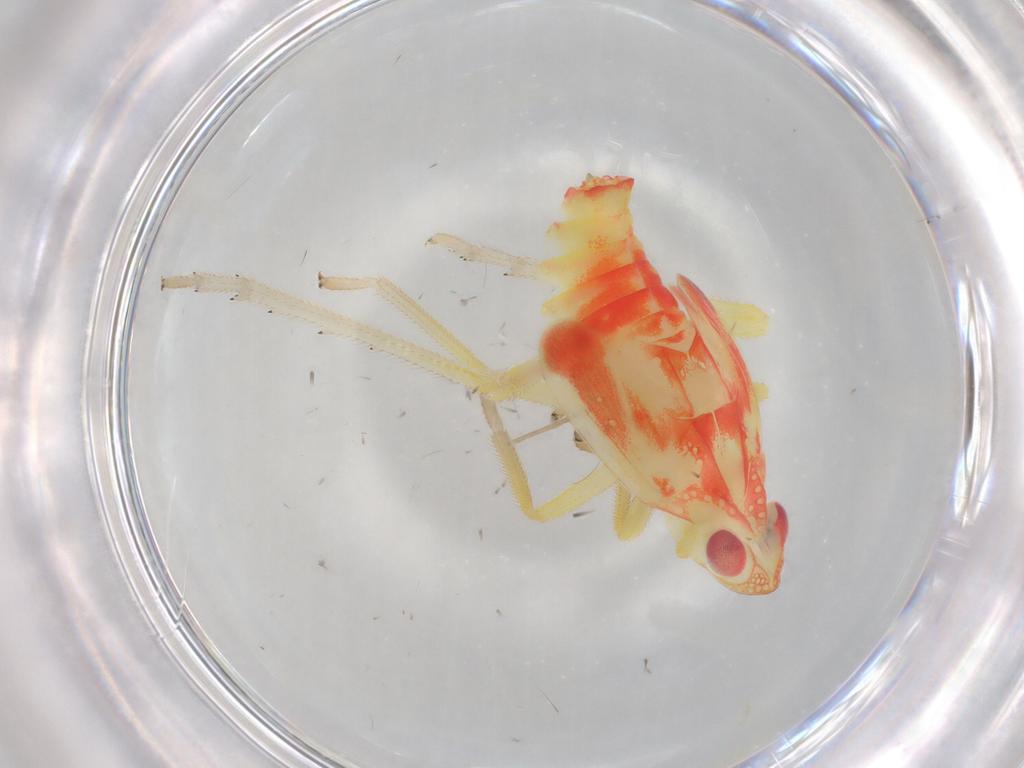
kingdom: Animalia
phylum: Arthropoda
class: Insecta
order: Hemiptera
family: Tropiduchidae
